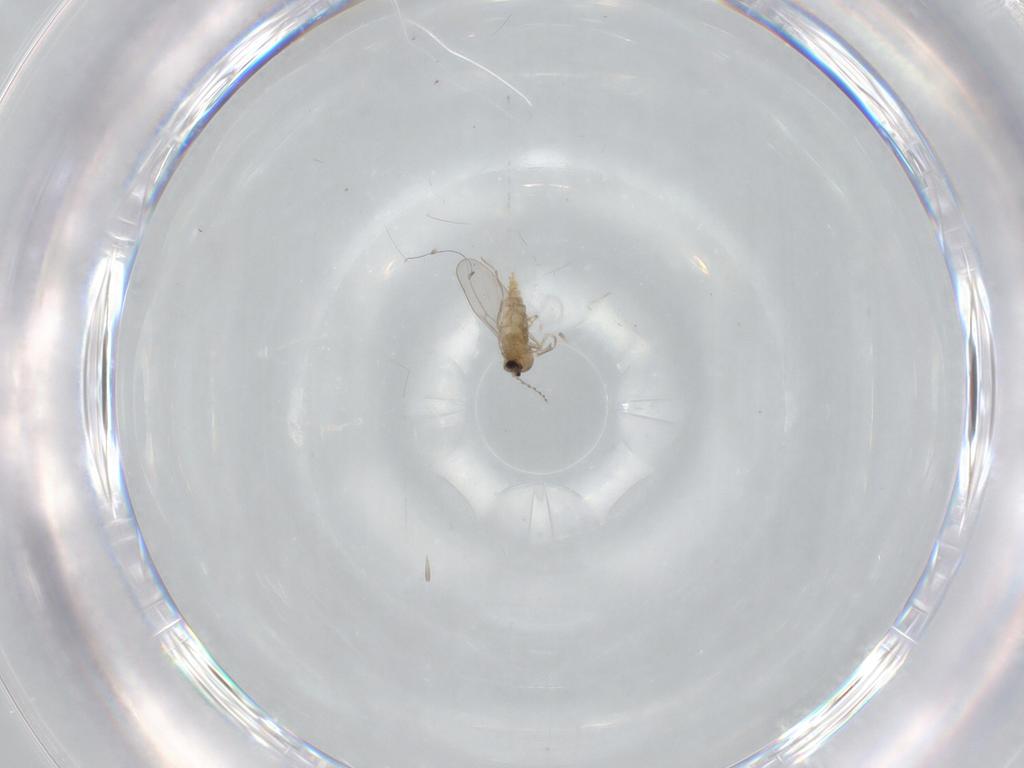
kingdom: Animalia
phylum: Arthropoda
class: Insecta
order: Diptera
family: Cecidomyiidae
